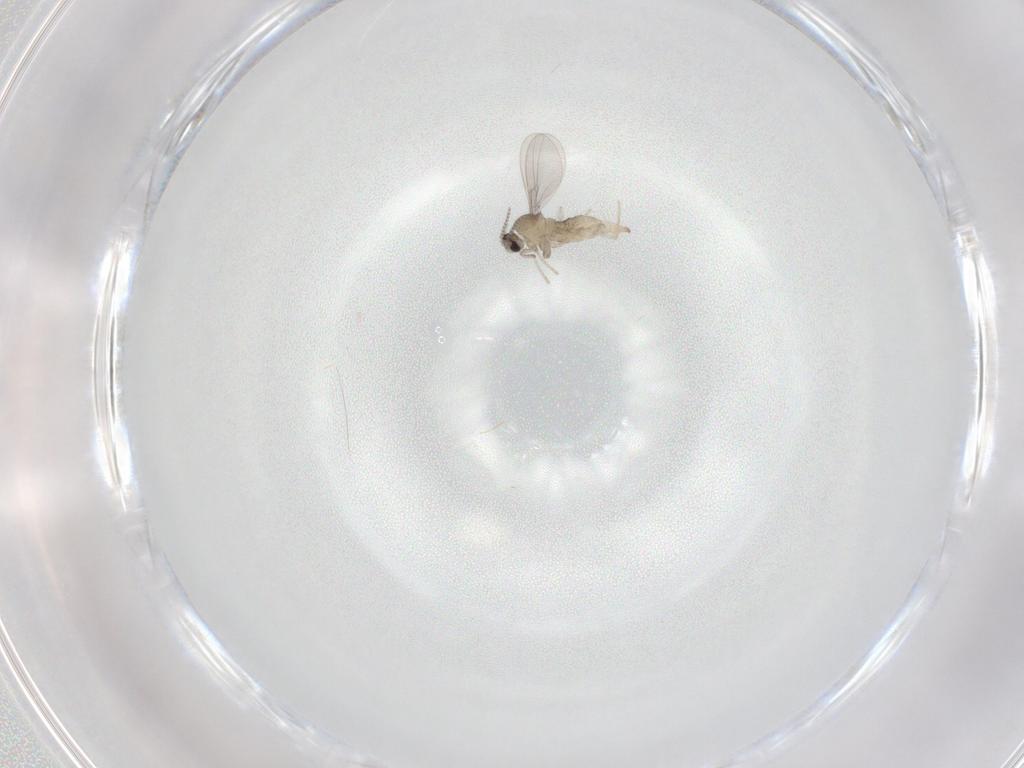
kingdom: Animalia
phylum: Arthropoda
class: Insecta
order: Diptera
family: Cecidomyiidae
